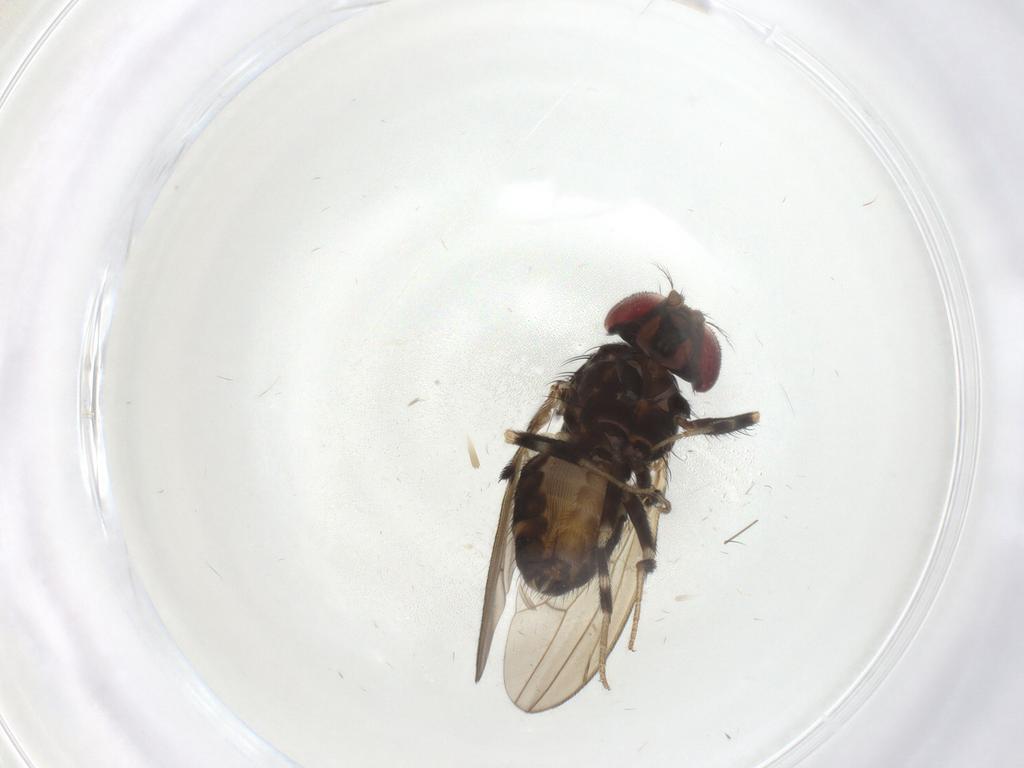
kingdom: Animalia
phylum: Arthropoda
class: Insecta
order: Diptera
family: Drosophilidae
